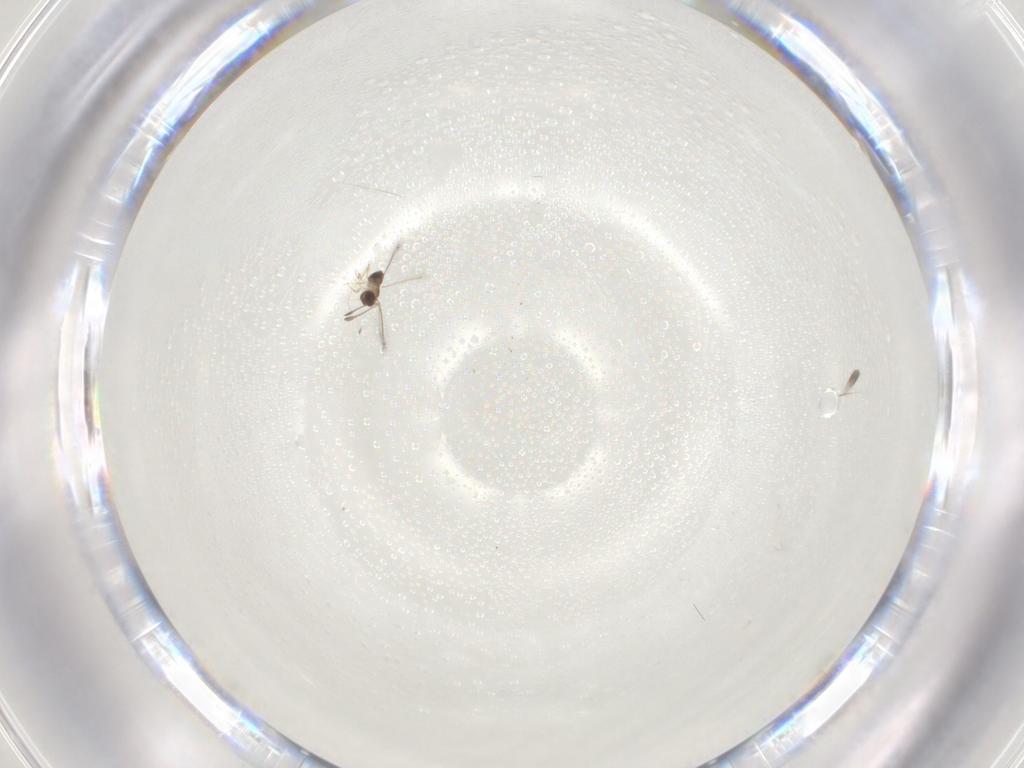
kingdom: Animalia
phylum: Arthropoda
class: Insecta
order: Hymenoptera
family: Mymaridae
